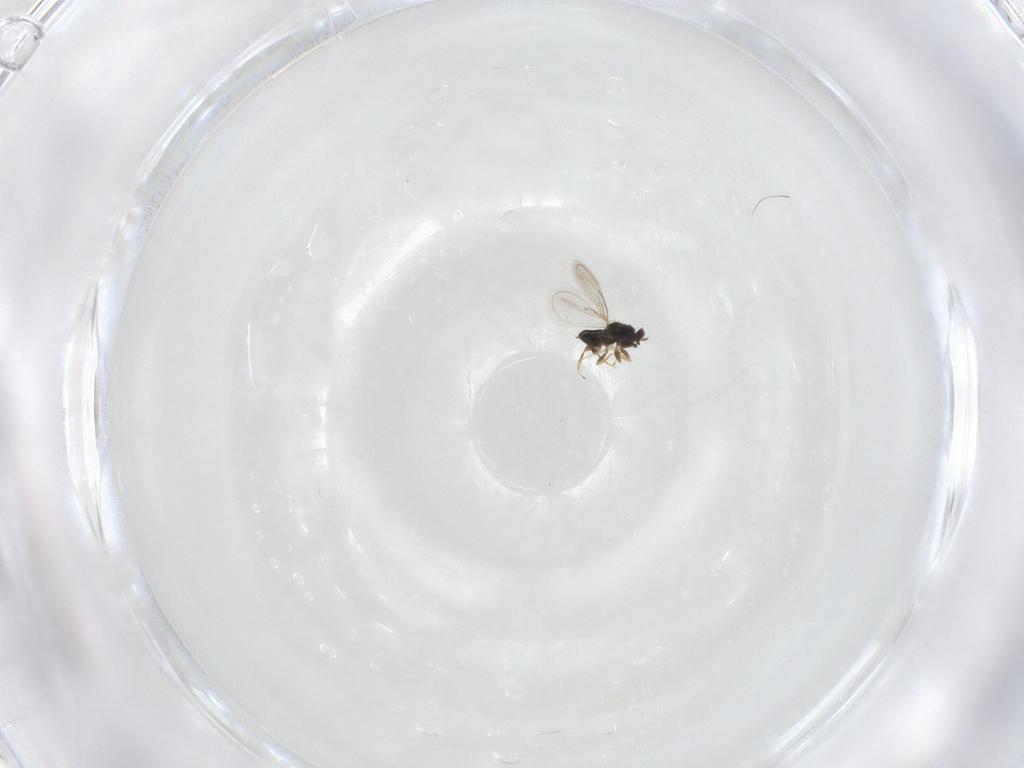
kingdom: Animalia
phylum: Arthropoda
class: Insecta
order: Hymenoptera
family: Eulophidae
